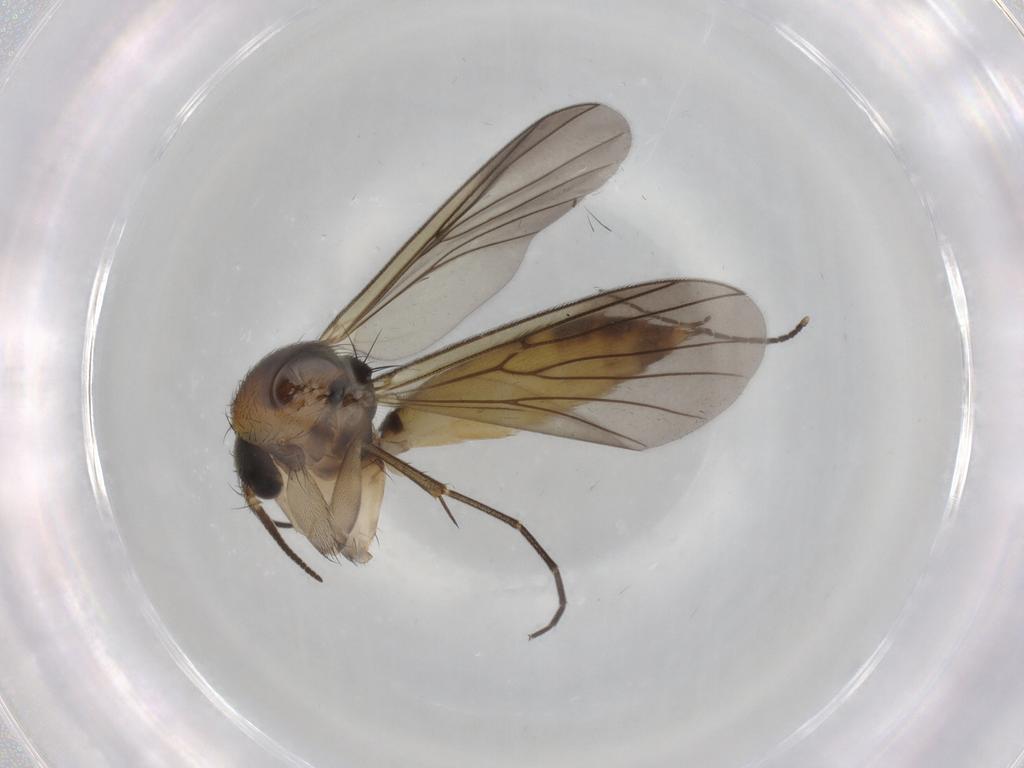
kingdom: Animalia
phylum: Arthropoda
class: Insecta
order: Diptera
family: Mycetophilidae
